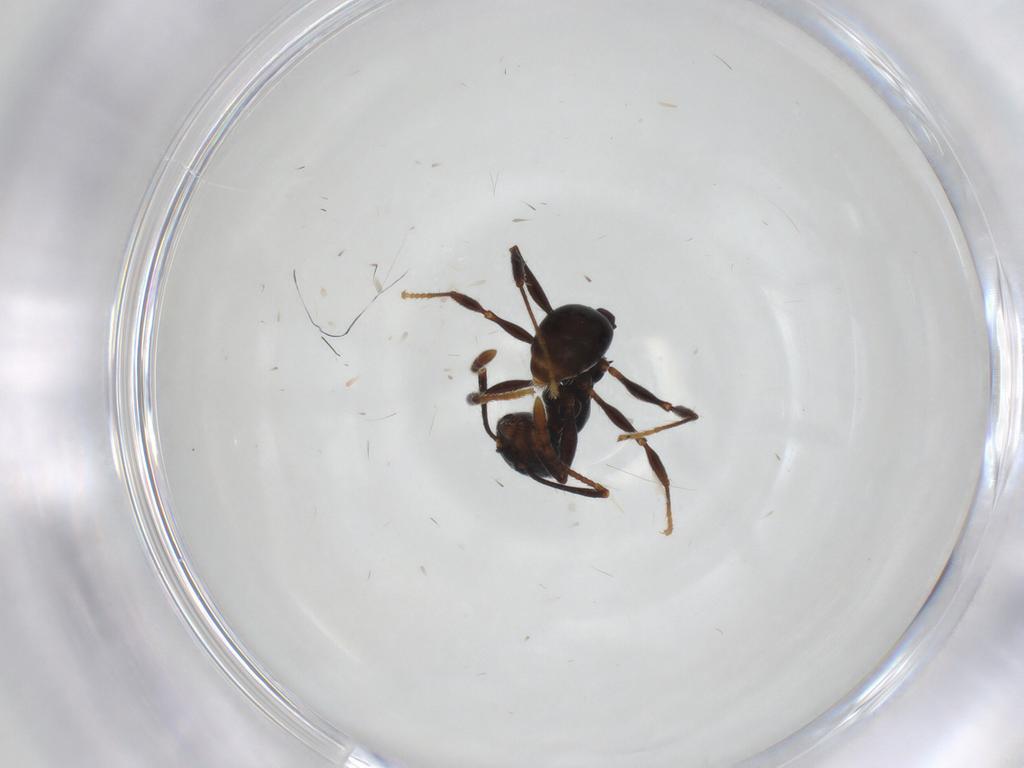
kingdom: Animalia
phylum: Arthropoda
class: Insecta
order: Hymenoptera
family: Formicidae
